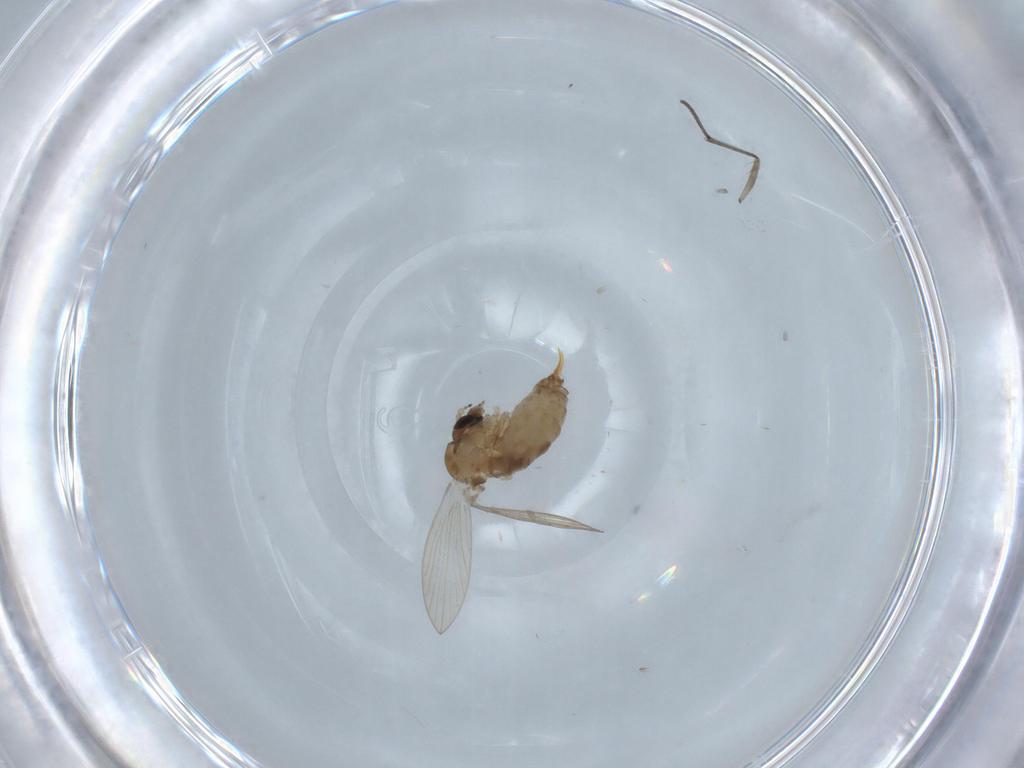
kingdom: Animalia
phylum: Arthropoda
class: Insecta
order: Diptera
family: Psychodidae
